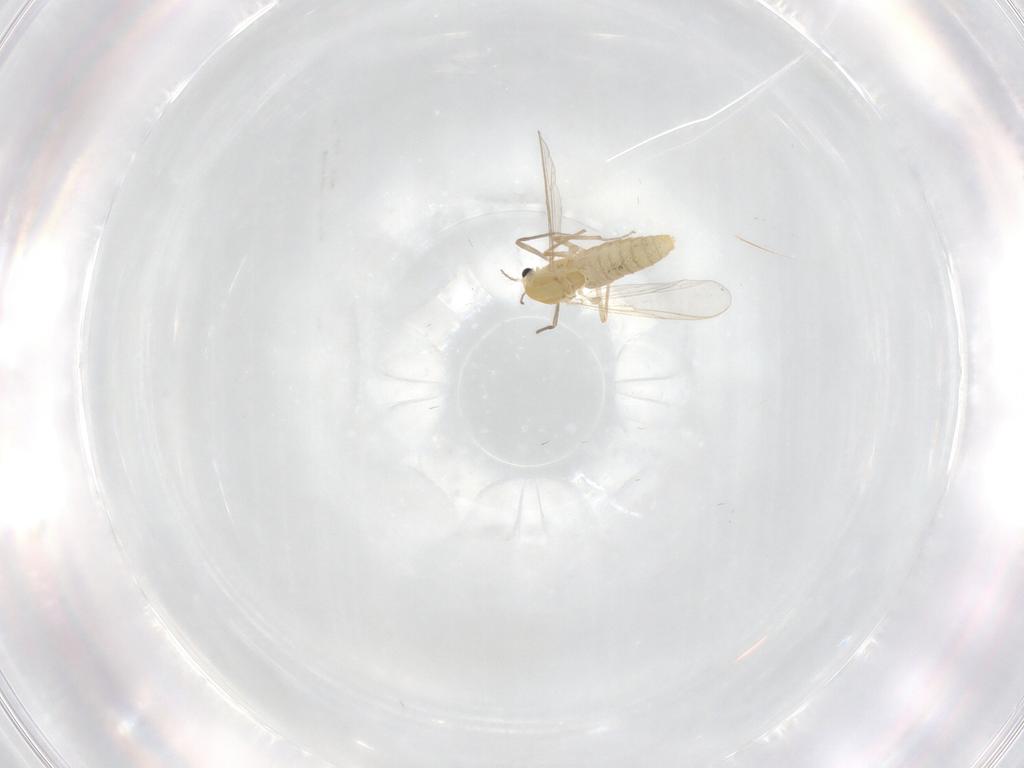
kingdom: Animalia
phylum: Arthropoda
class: Insecta
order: Diptera
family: Chironomidae
